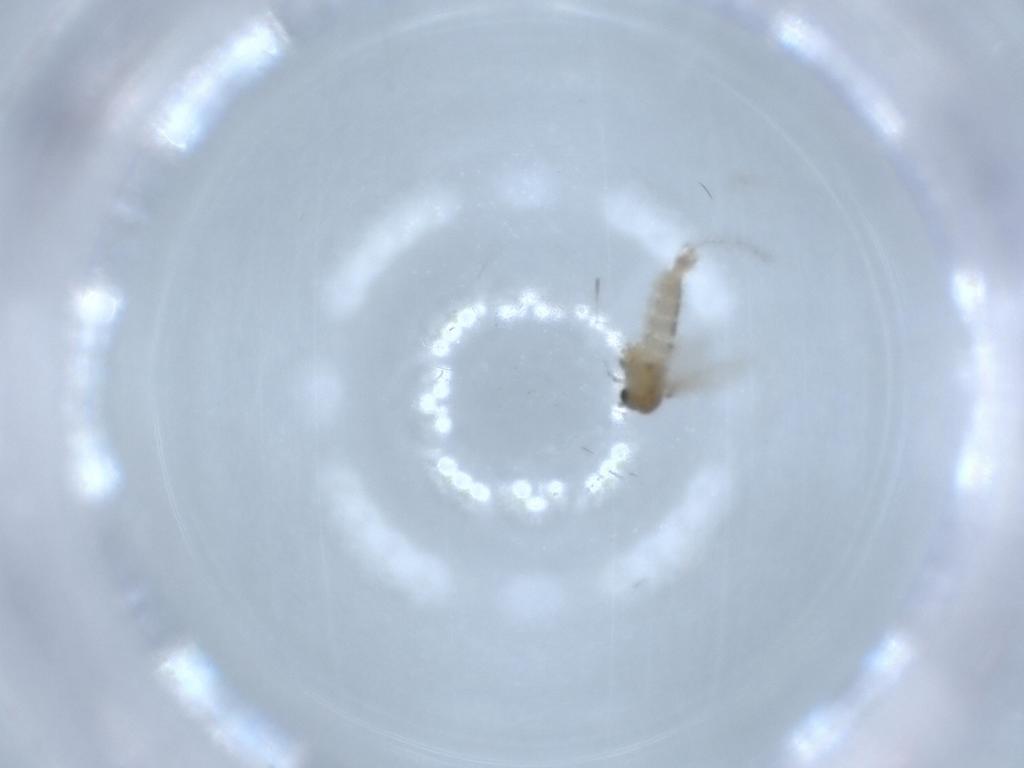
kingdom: Animalia
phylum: Arthropoda
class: Insecta
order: Diptera
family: Psychodidae
